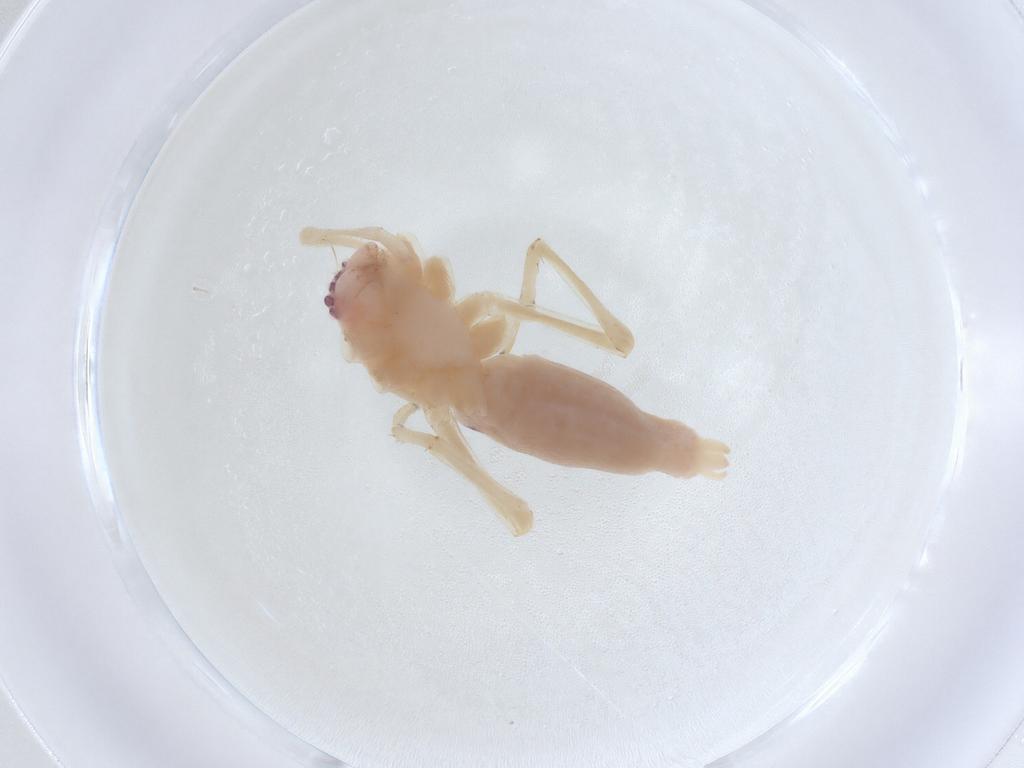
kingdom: Animalia
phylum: Arthropoda
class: Arachnida
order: Araneae
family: Theridiidae
